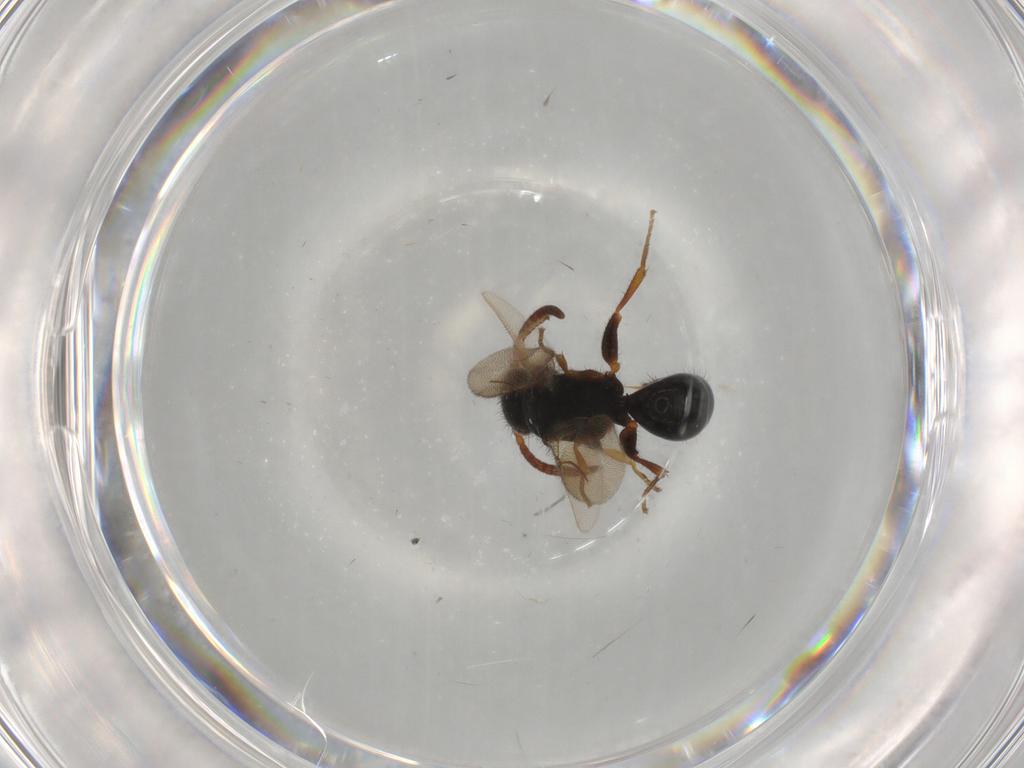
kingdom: Animalia
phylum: Arthropoda
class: Insecta
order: Hymenoptera
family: Bethylidae
